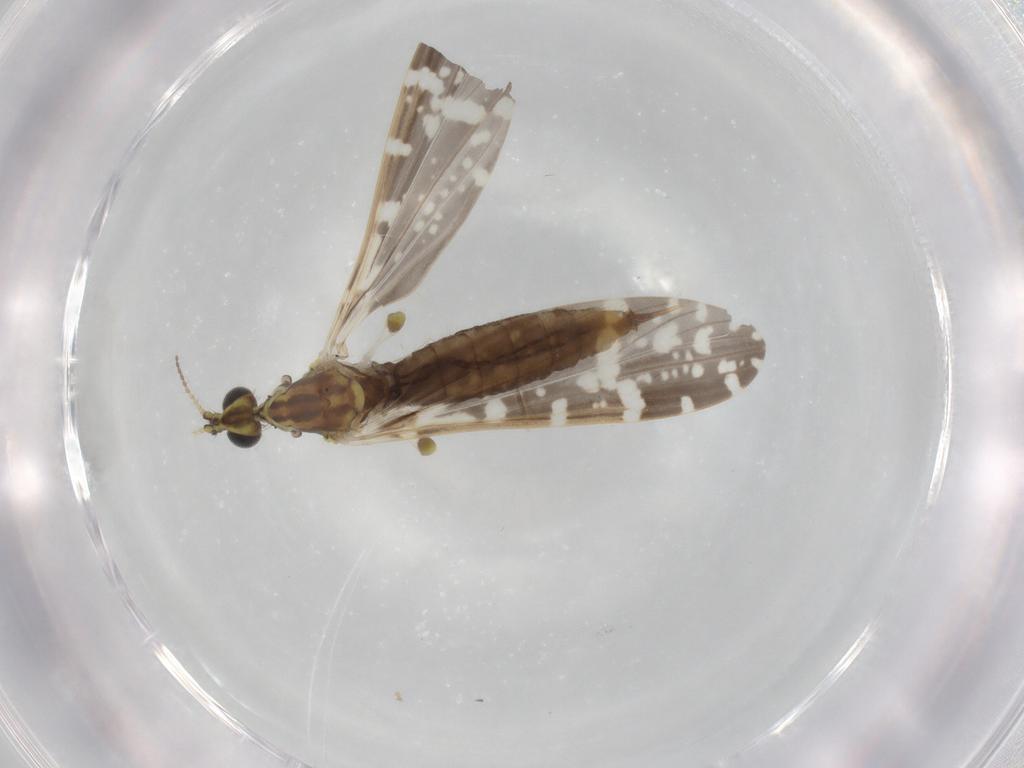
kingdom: Animalia
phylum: Arthropoda
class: Insecta
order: Diptera
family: Limoniidae
